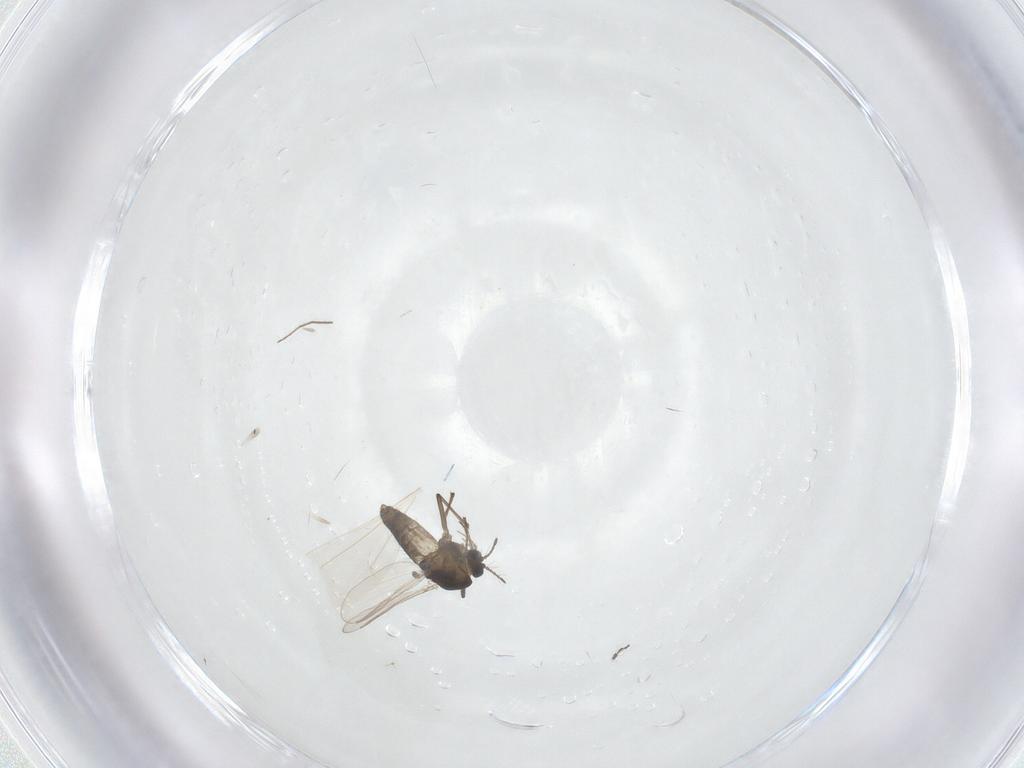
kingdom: Animalia
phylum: Arthropoda
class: Insecta
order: Diptera
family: Chironomidae
